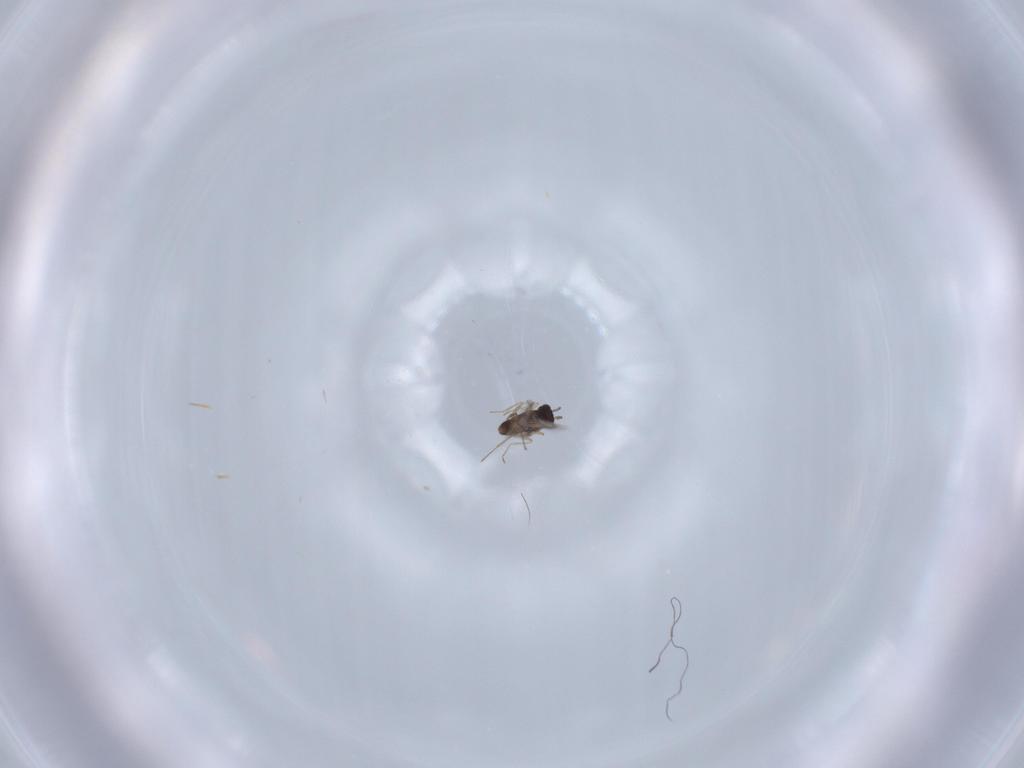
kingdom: Animalia
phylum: Arthropoda
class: Insecta
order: Hymenoptera
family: Mymaridae
